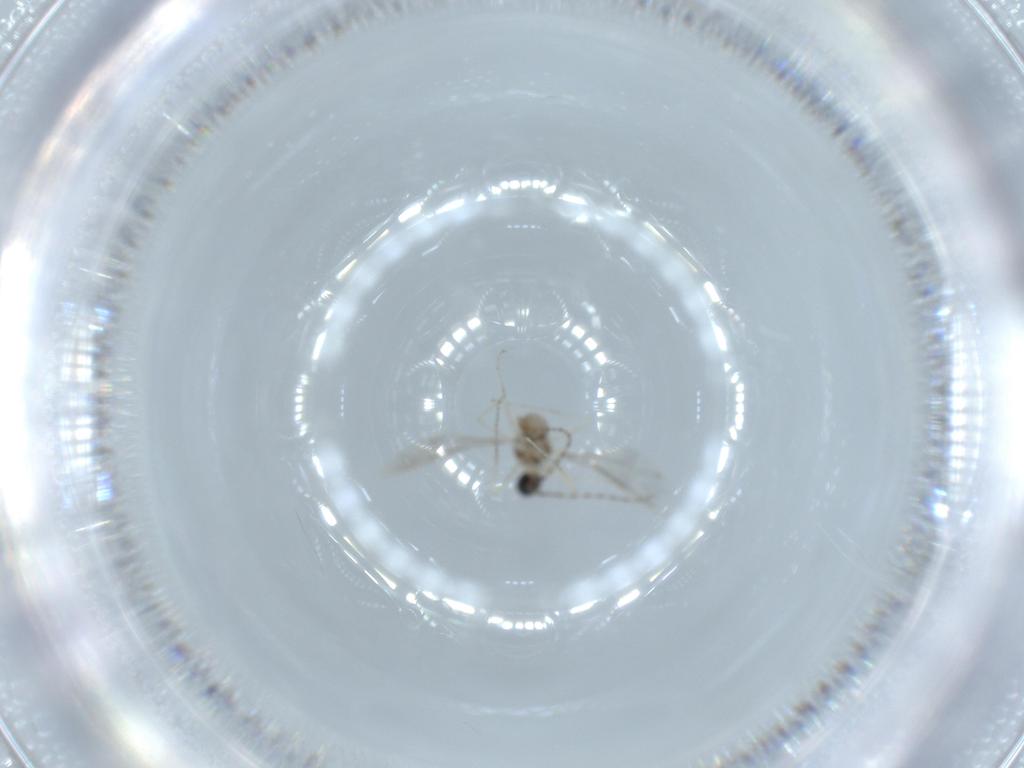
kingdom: Animalia
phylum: Arthropoda
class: Insecta
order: Diptera
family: Cecidomyiidae
